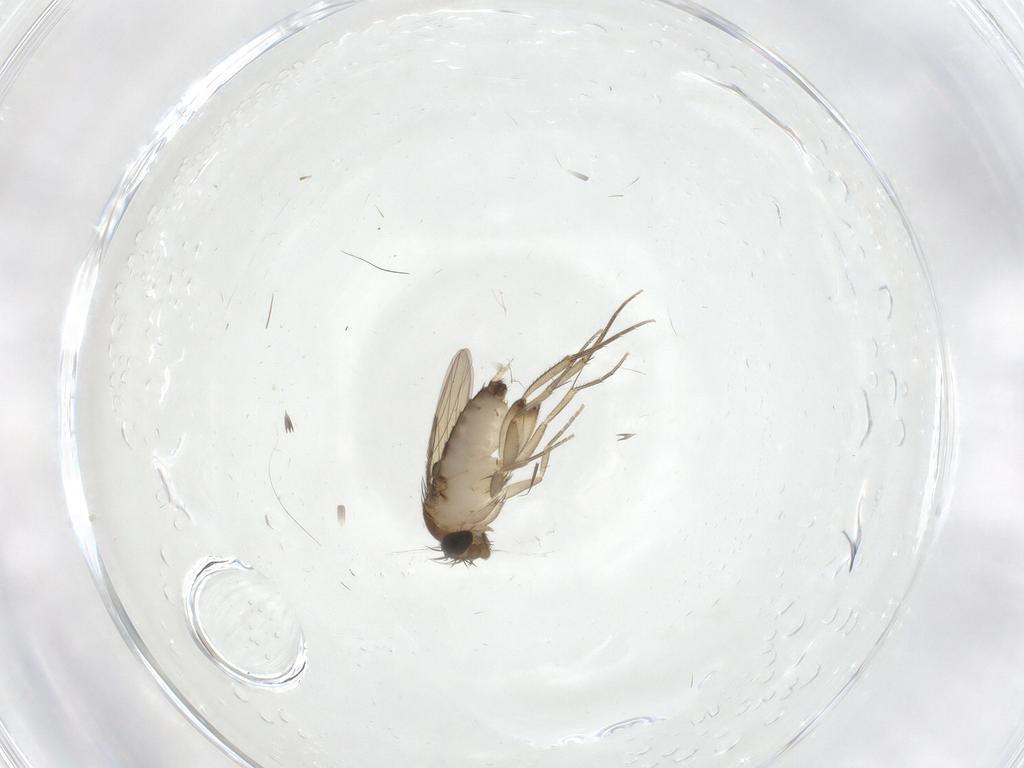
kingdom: Animalia
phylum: Arthropoda
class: Insecta
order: Diptera
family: Phoridae
